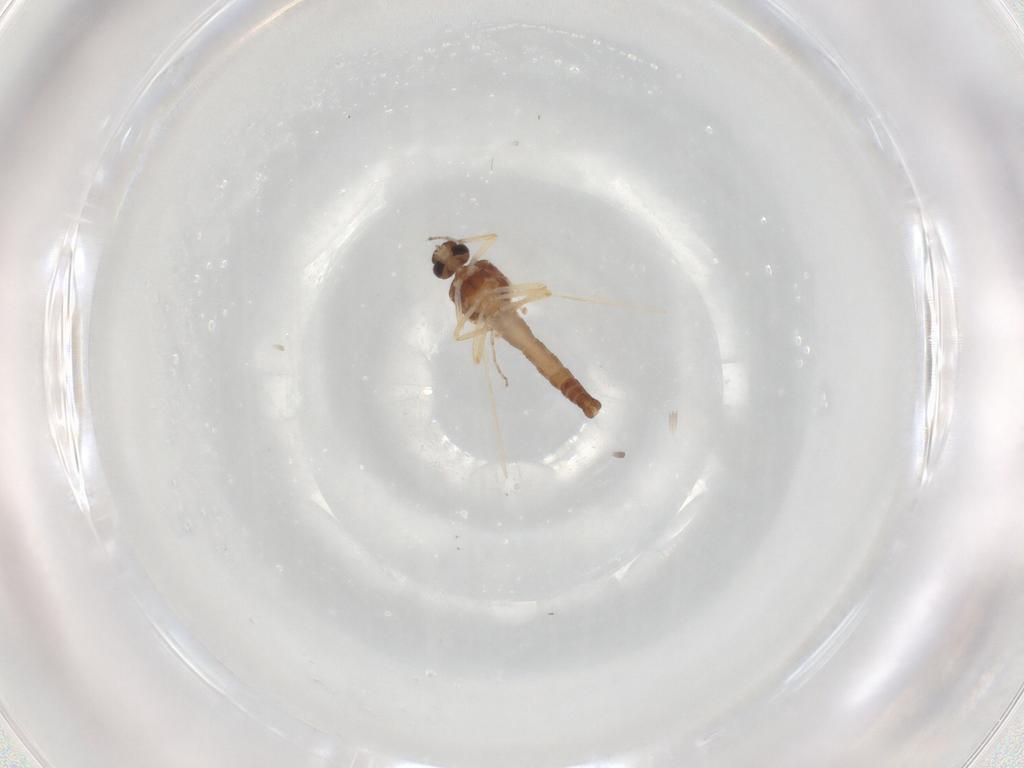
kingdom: Animalia
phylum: Arthropoda
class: Insecta
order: Diptera
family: Ceratopogonidae
